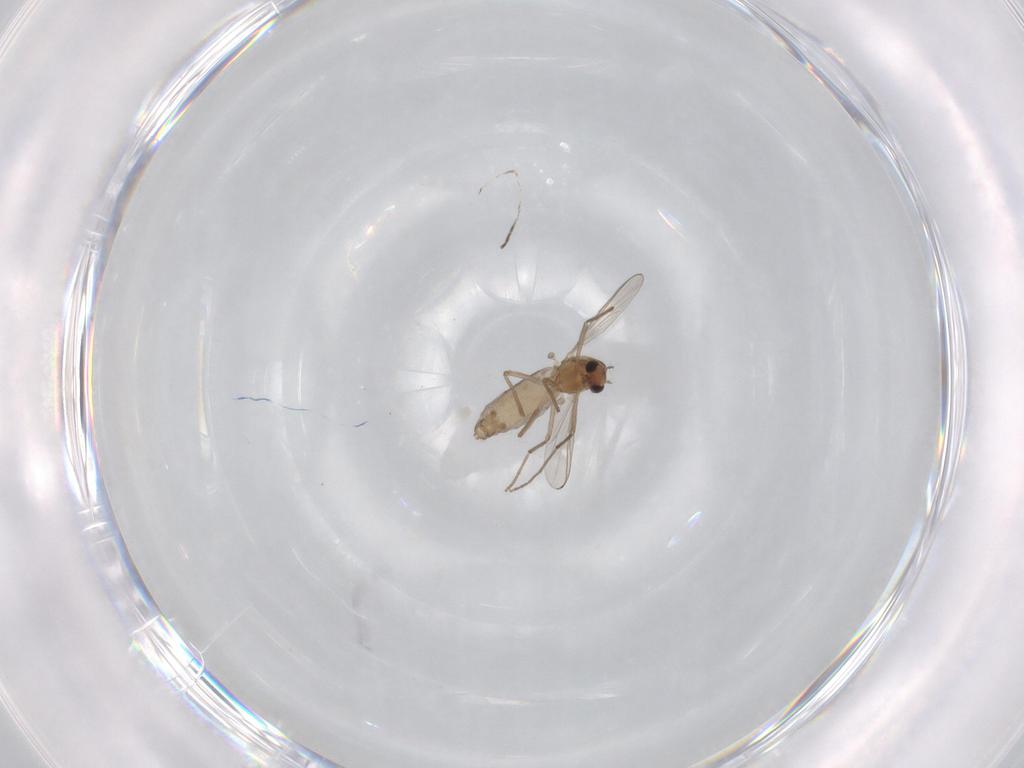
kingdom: Animalia
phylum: Arthropoda
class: Insecta
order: Diptera
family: Chironomidae
